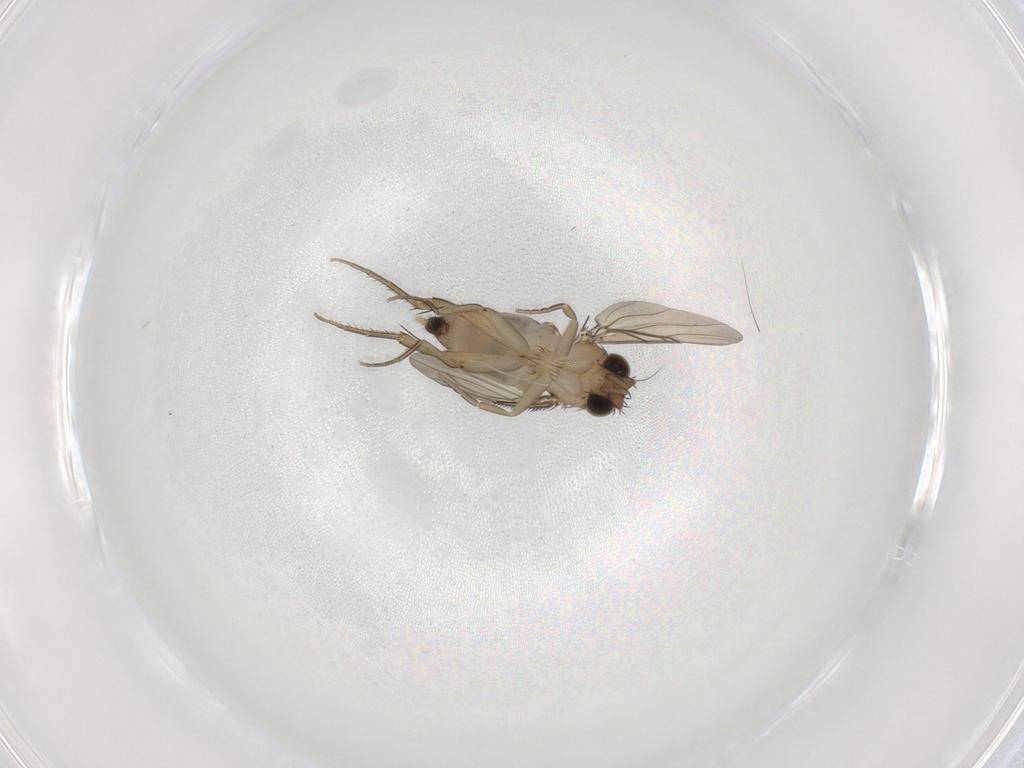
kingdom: Animalia
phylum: Arthropoda
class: Insecta
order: Diptera
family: Phoridae
